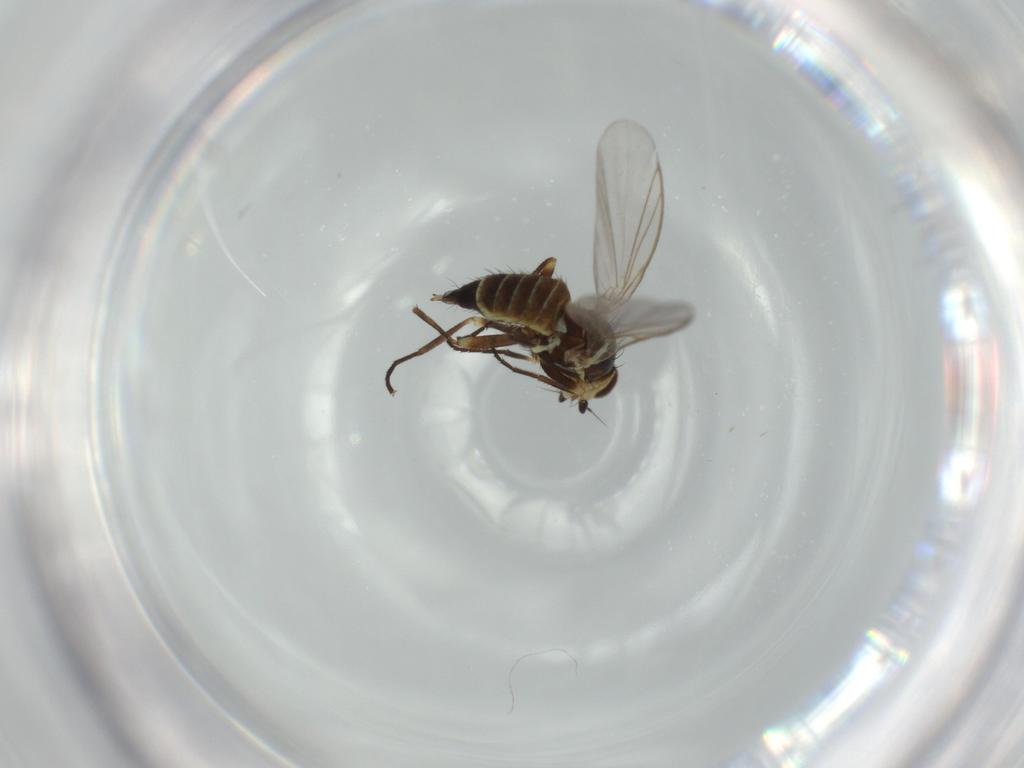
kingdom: Animalia
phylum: Arthropoda
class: Insecta
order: Diptera
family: Agromyzidae
